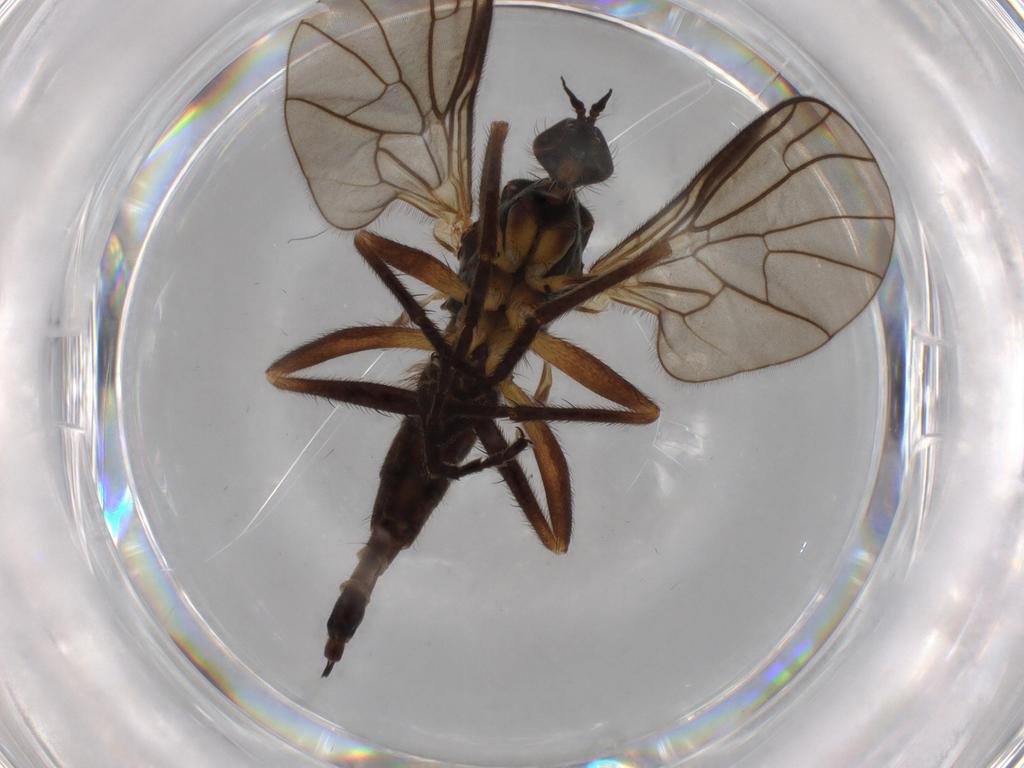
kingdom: Animalia
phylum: Arthropoda
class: Insecta
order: Diptera
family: Empididae
